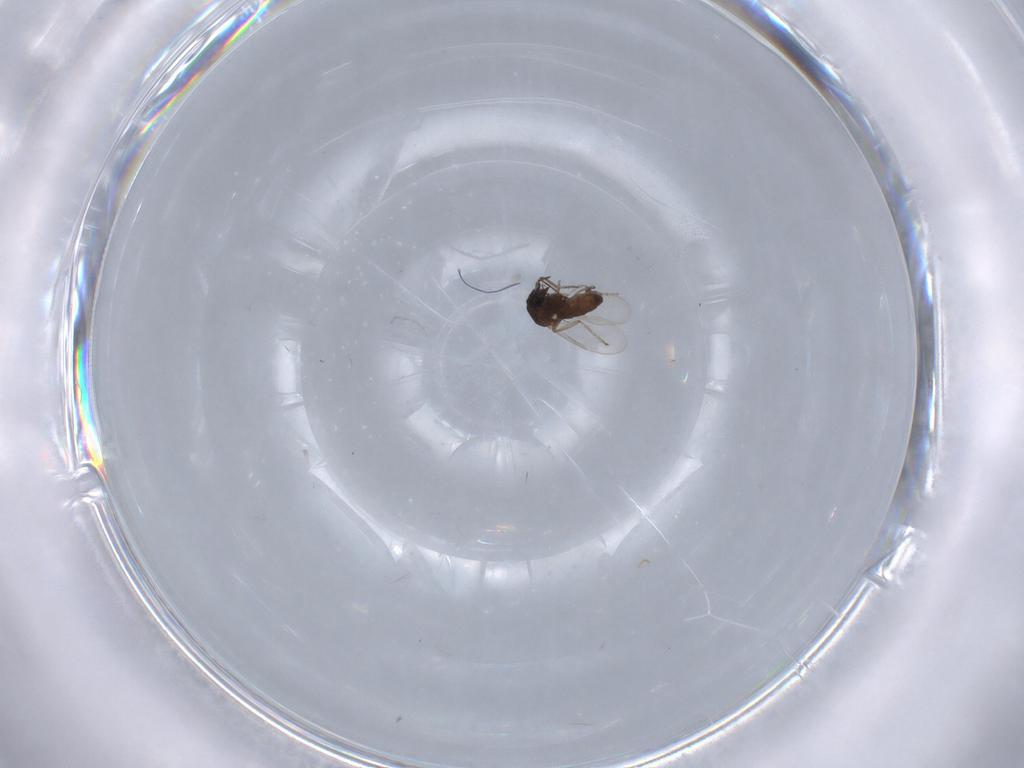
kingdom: Animalia
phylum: Arthropoda
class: Insecta
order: Diptera
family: Ceratopogonidae
